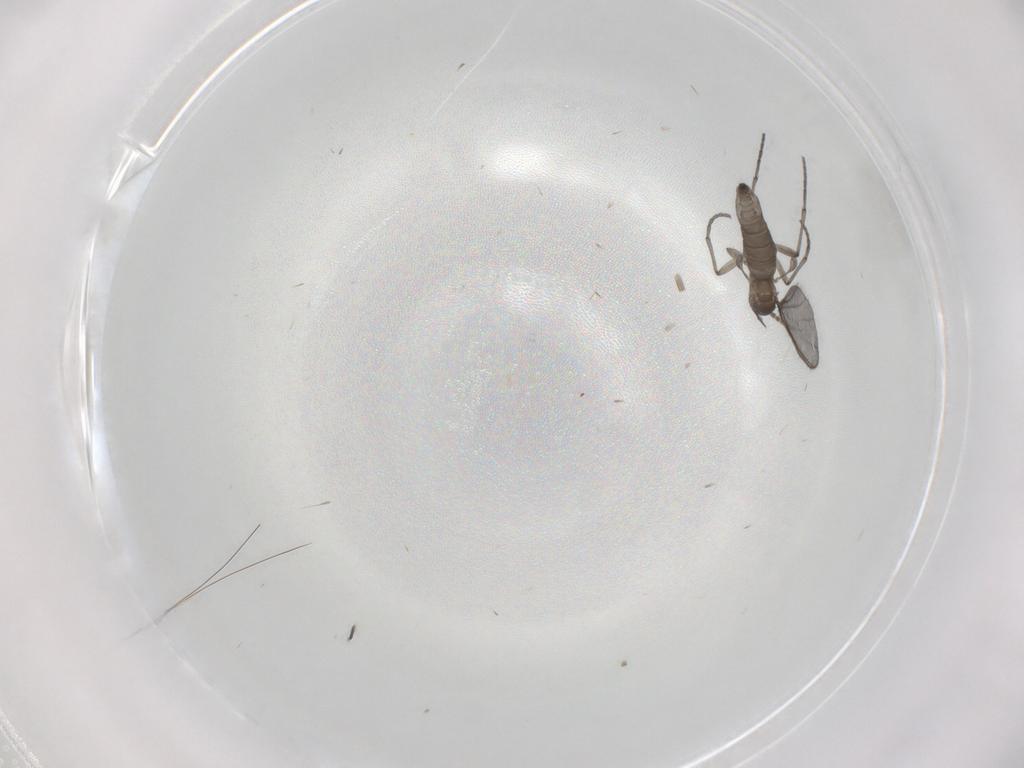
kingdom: Animalia
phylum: Arthropoda
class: Insecta
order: Diptera
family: Sciaridae
